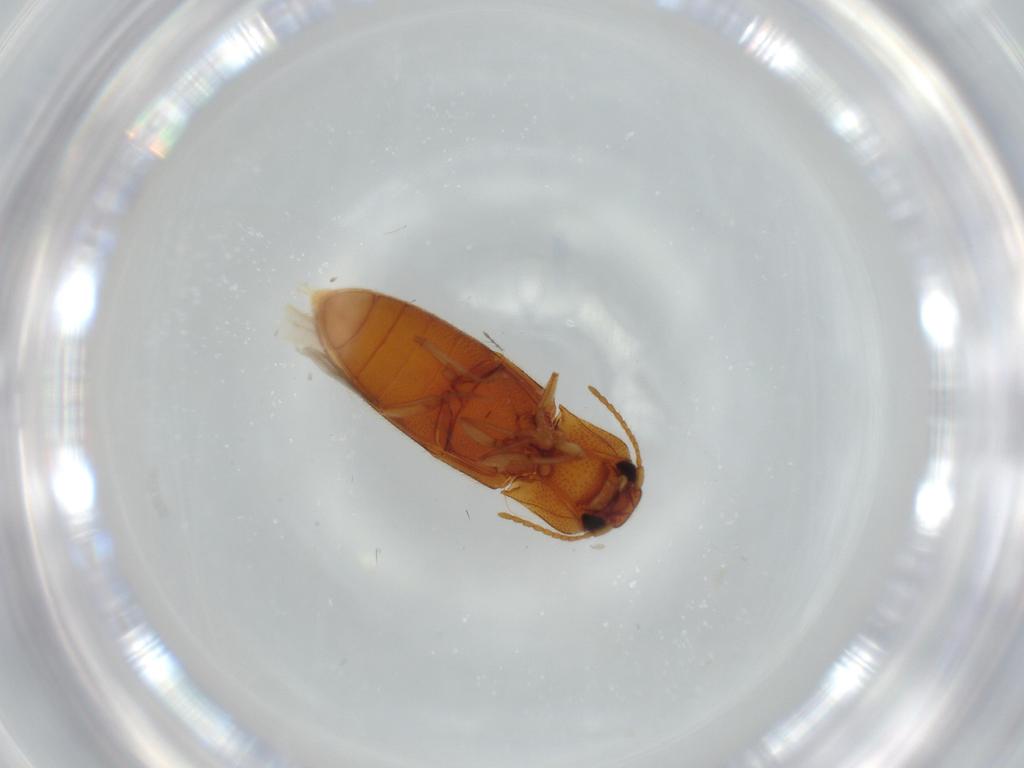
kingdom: Animalia
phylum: Arthropoda
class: Insecta
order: Coleoptera
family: Elateridae
